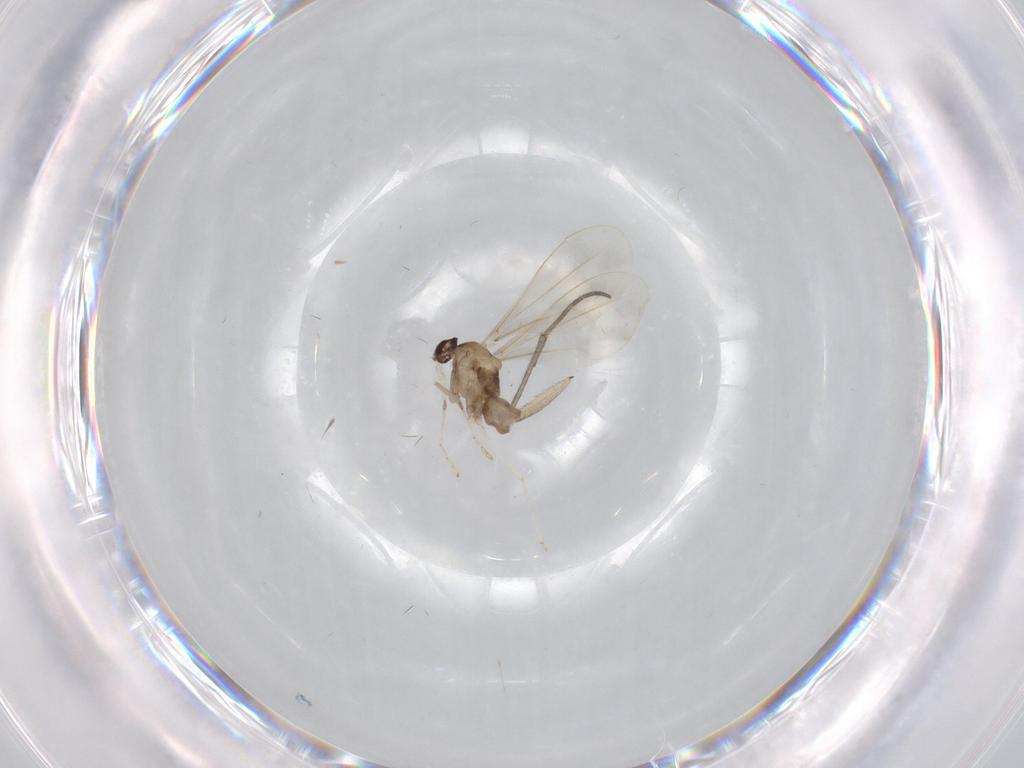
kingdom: Animalia
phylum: Arthropoda
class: Insecta
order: Diptera
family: Sciaridae
